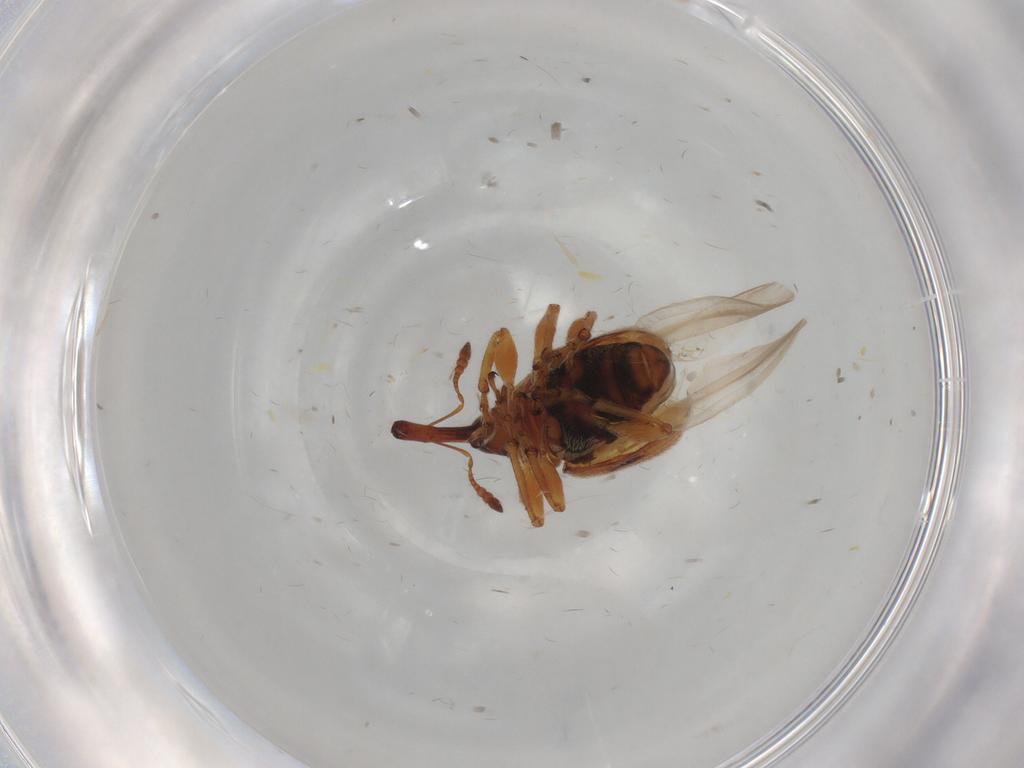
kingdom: Animalia
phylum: Arthropoda
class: Insecta
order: Coleoptera
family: Brentidae
